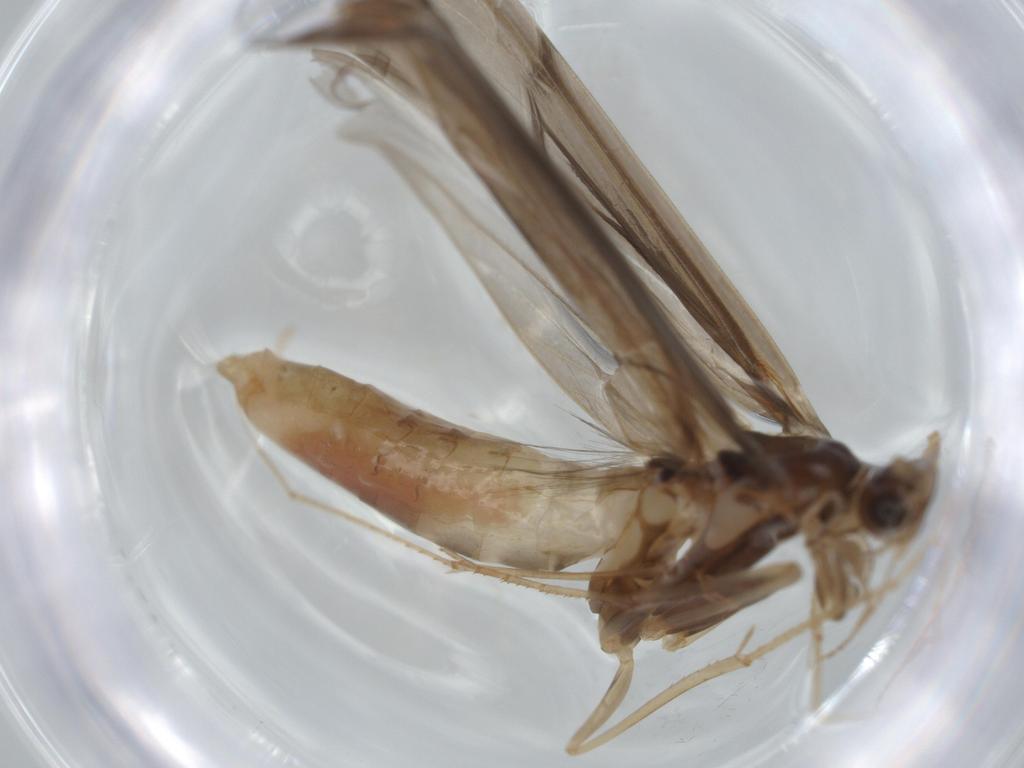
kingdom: Animalia
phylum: Arthropoda
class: Insecta
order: Trichoptera
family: Leptoceridae
